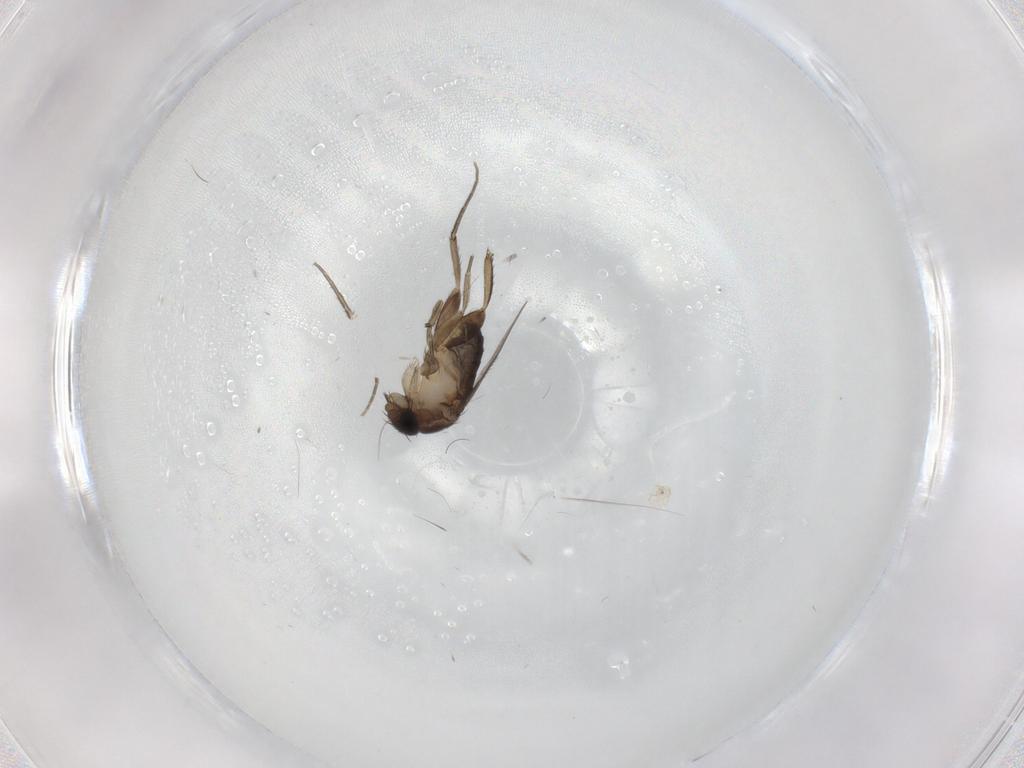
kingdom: Animalia
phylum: Arthropoda
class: Insecta
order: Diptera
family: Phoridae
